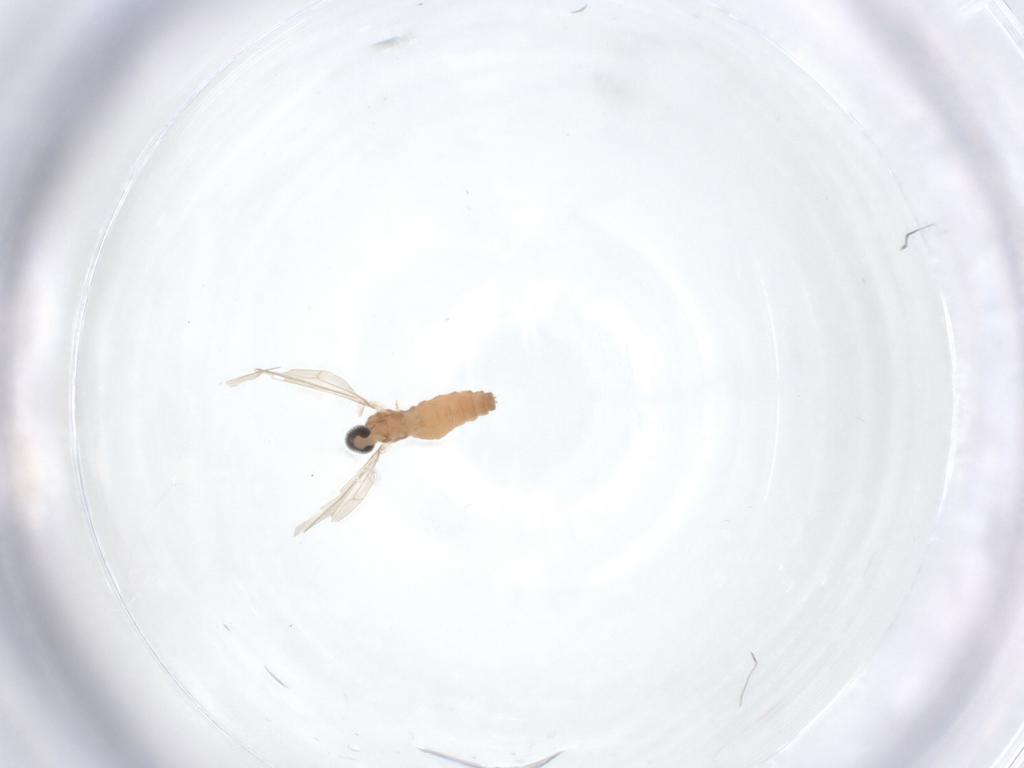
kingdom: Animalia
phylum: Arthropoda
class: Insecta
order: Diptera
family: Cecidomyiidae
